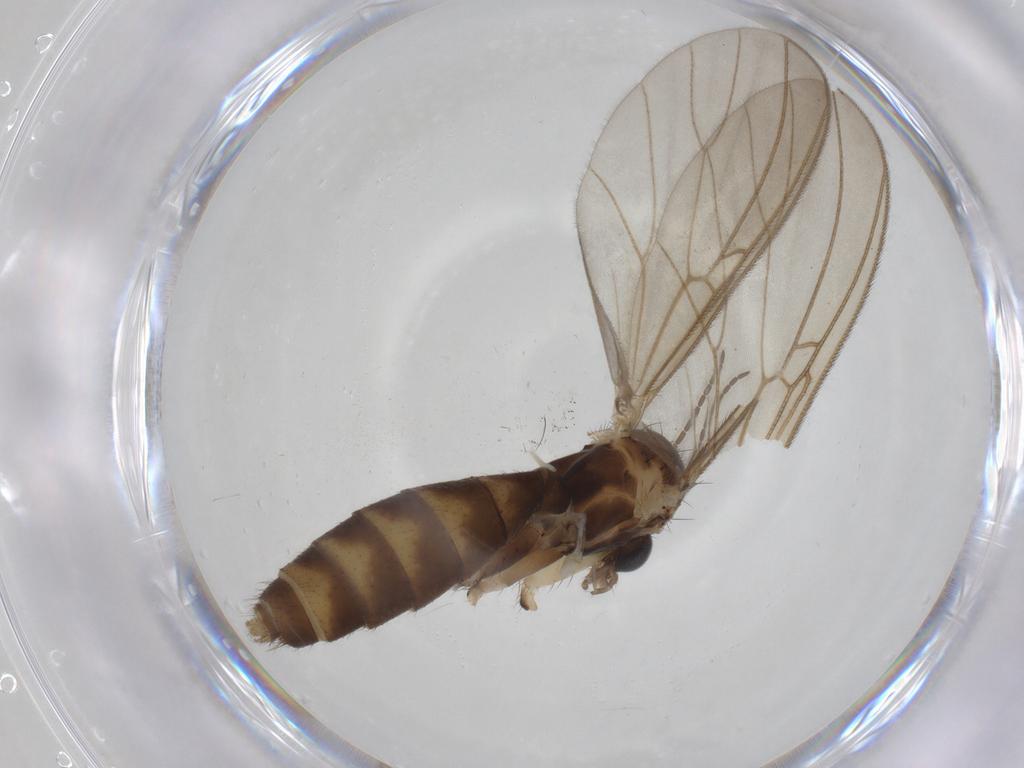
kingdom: Animalia
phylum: Arthropoda
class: Insecta
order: Diptera
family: Mycetophilidae
